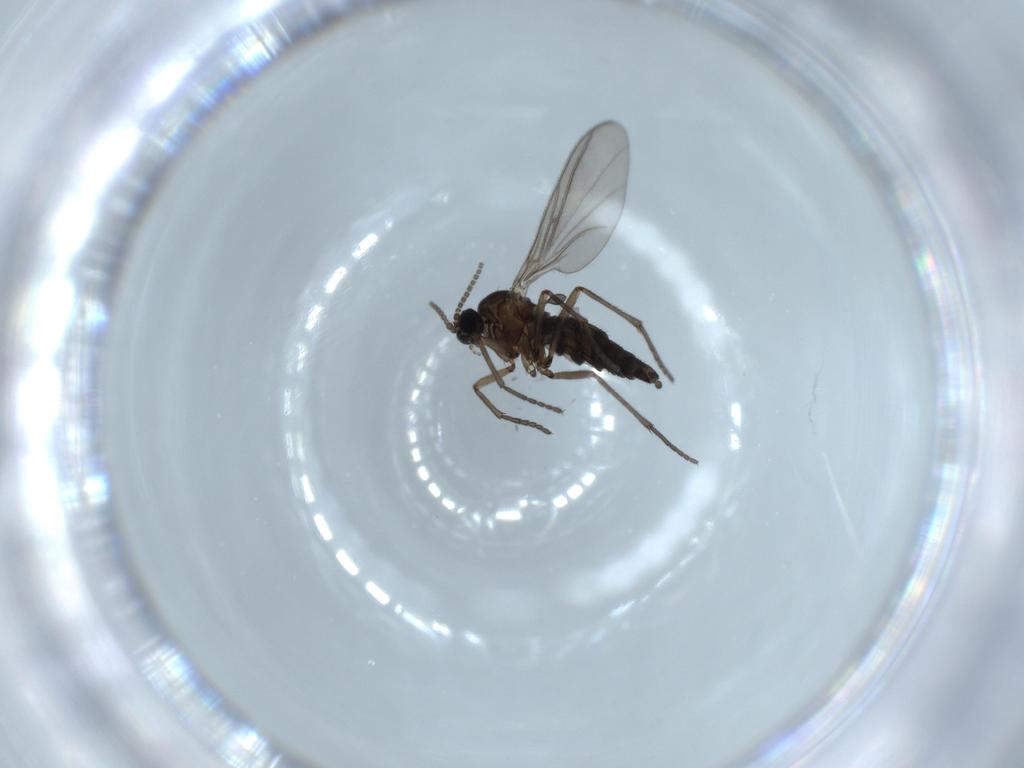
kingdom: Animalia
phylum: Arthropoda
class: Insecta
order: Diptera
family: Sciaridae
